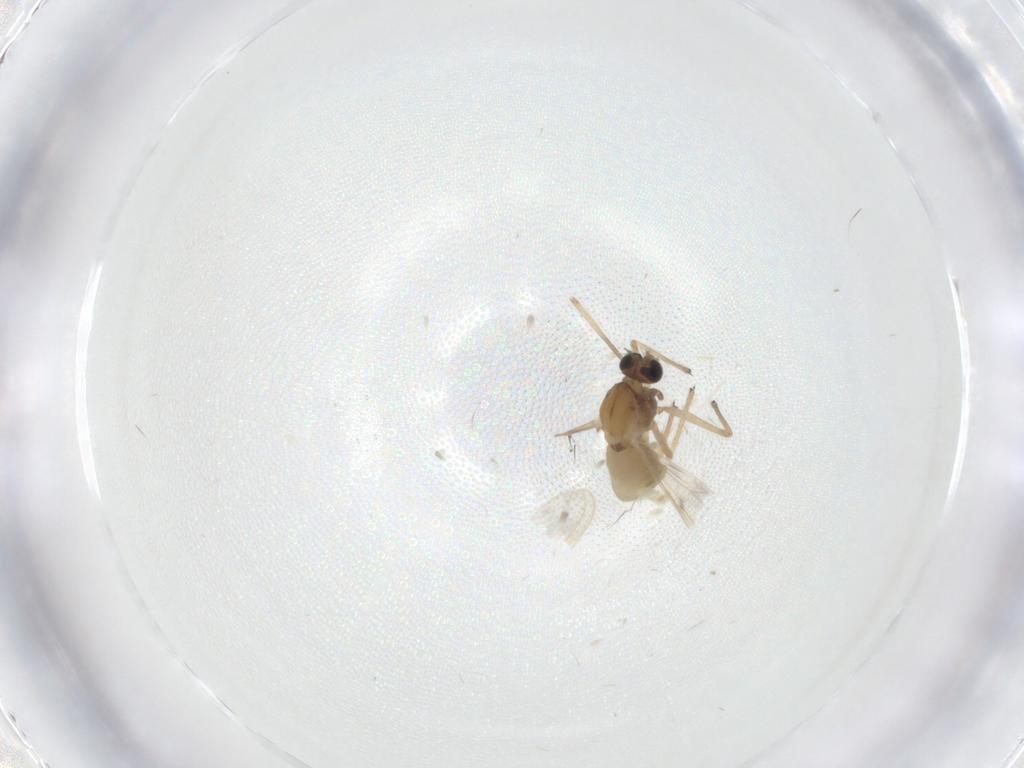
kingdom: Animalia
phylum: Arthropoda
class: Insecta
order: Diptera
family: Chironomidae
